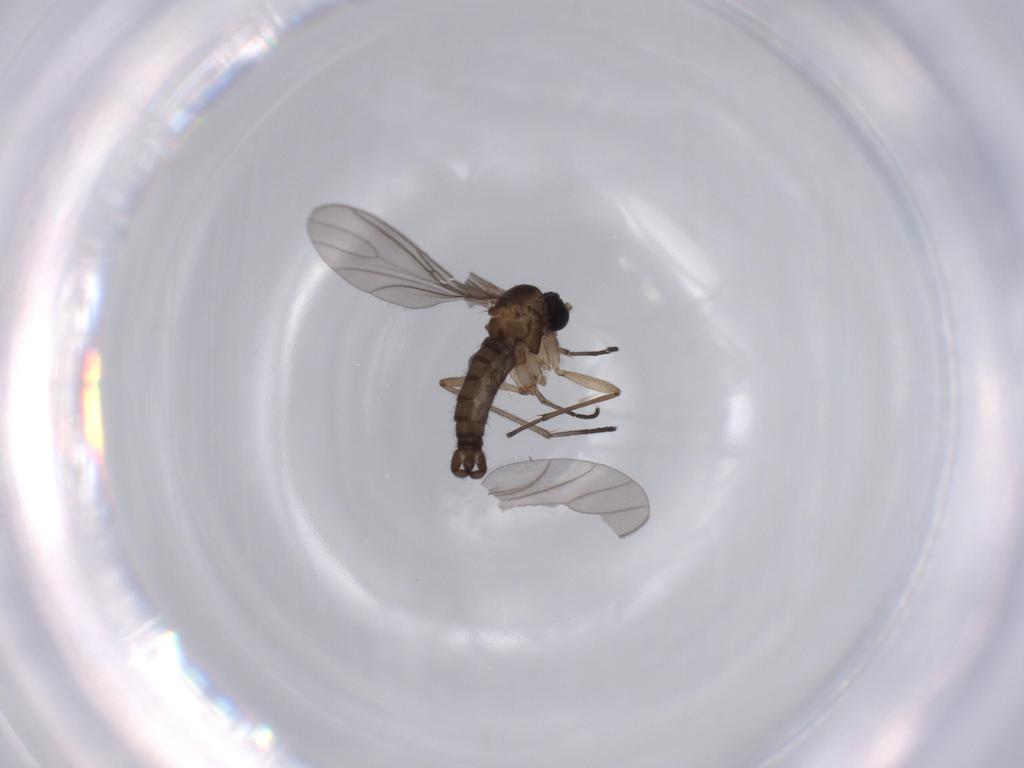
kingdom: Animalia
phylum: Arthropoda
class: Insecta
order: Diptera
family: Sciaridae
